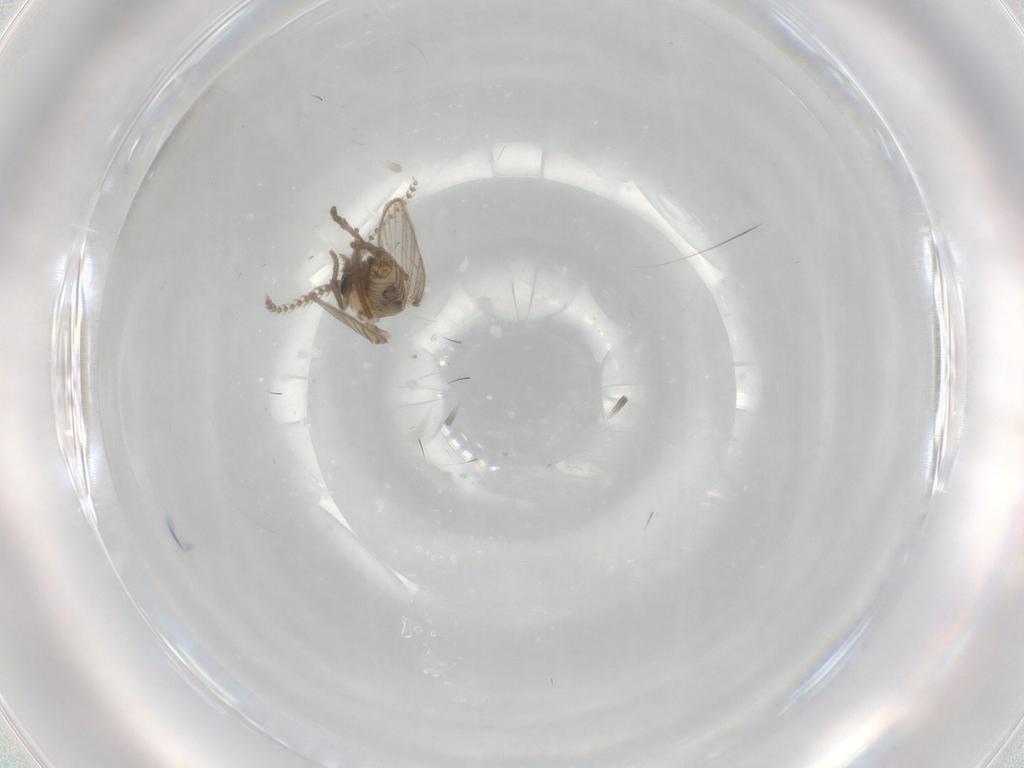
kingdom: Animalia
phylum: Arthropoda
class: Insecta
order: Diptera
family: Psychodidae
